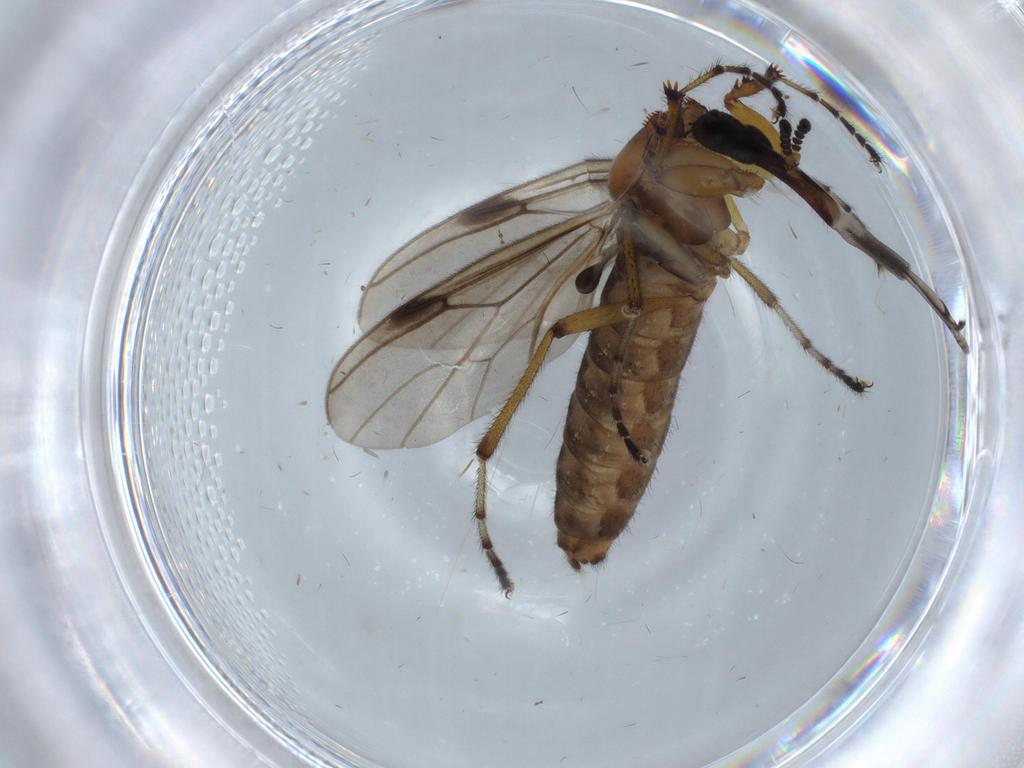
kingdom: Animalia
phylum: Arthropoda
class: Insecta
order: Diptera
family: Bibionidae
